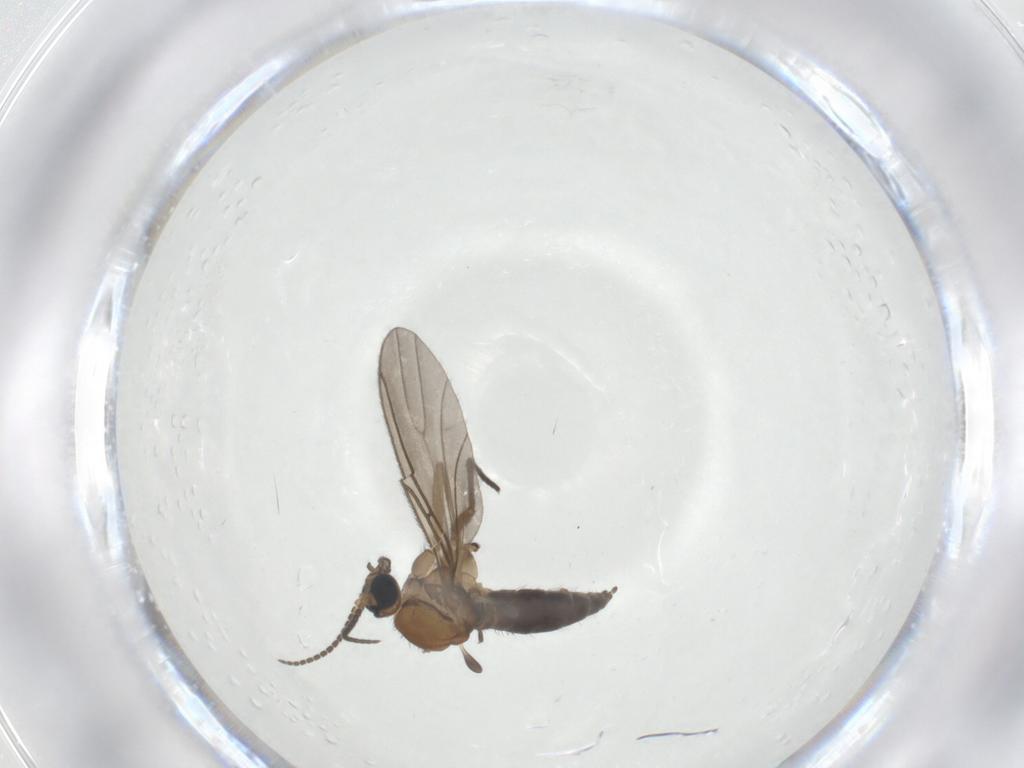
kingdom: Animalia
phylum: Arthropoda
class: Insecta
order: Diptera
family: Sciaridae
